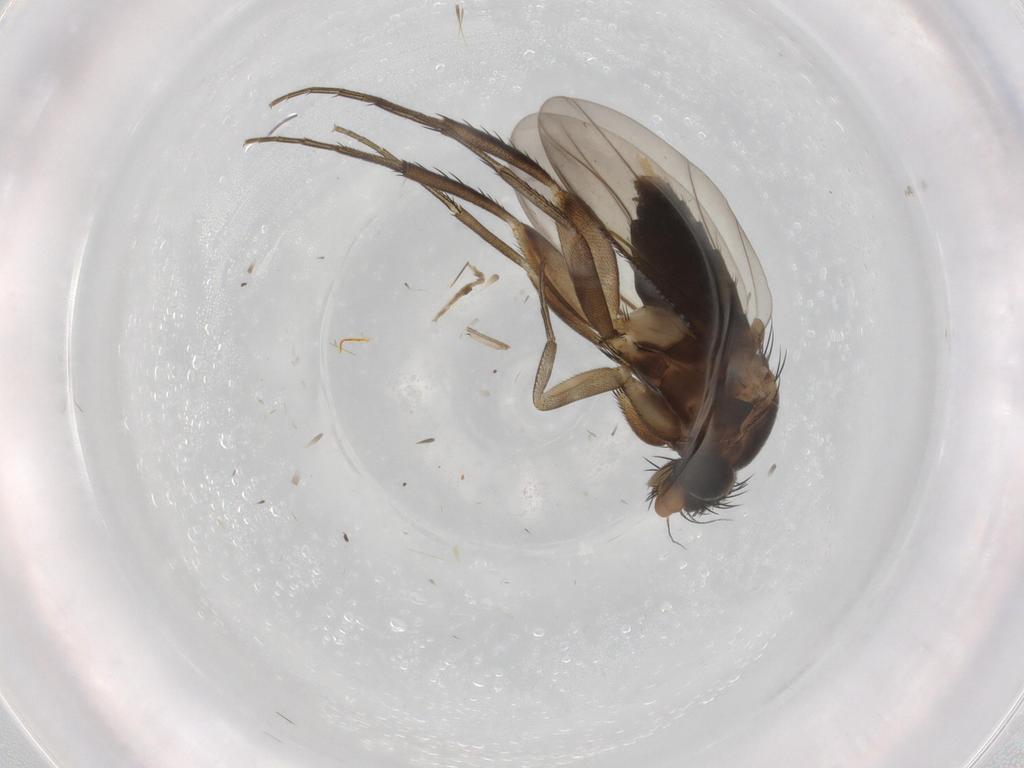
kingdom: Animalia
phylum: Arthropoda
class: Insecta
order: Diptera
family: Phoridae
